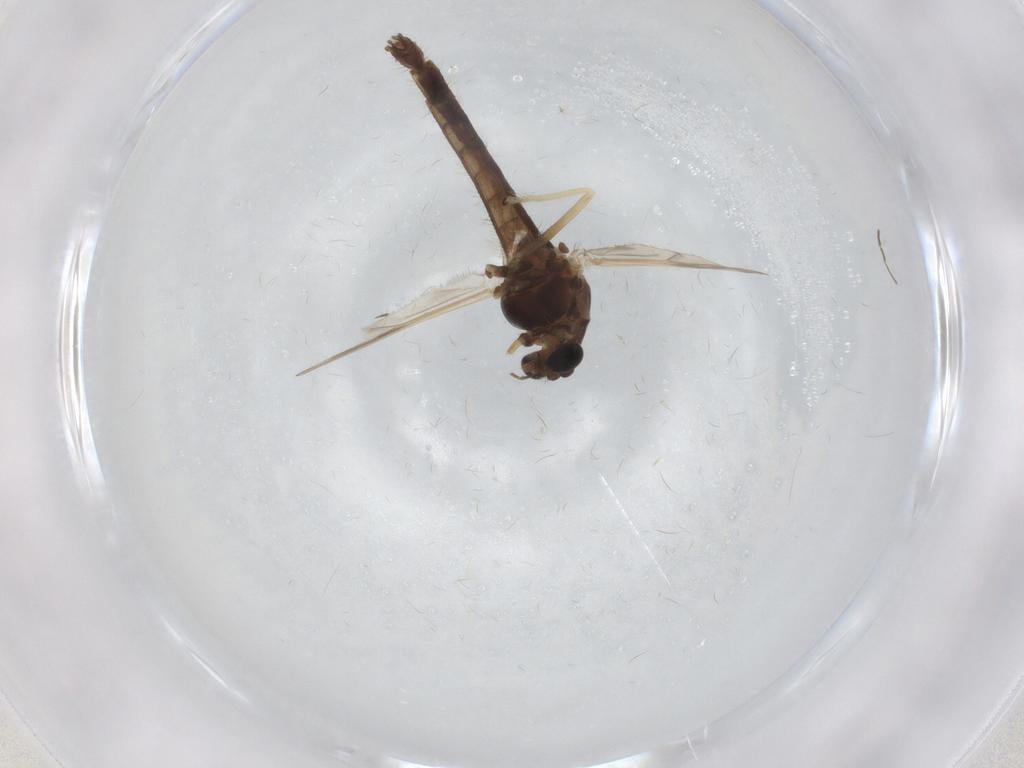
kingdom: Animalia
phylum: Arthropoda
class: Insecta
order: Diptera
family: Chironomidae
